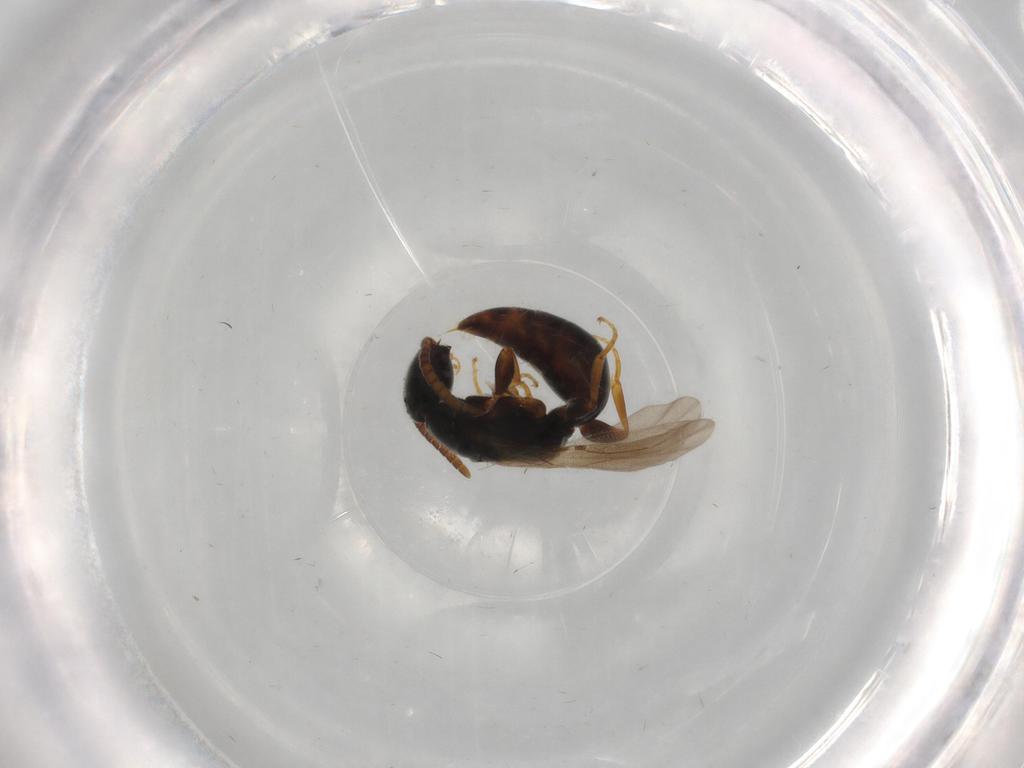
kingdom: Animalia
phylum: Arthropoda
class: Insecta
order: Hymenoptera
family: Bethylidae
